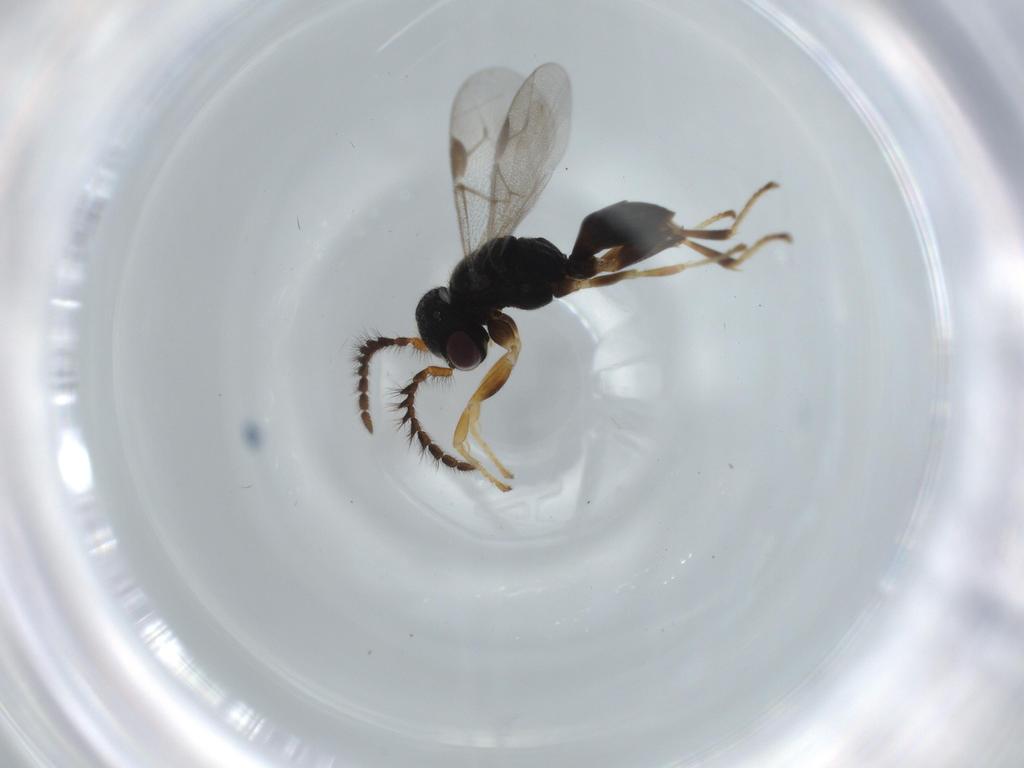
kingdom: Animalia
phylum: Arthropoda
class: Insecta
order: Hymenoptera
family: Dryinidae
